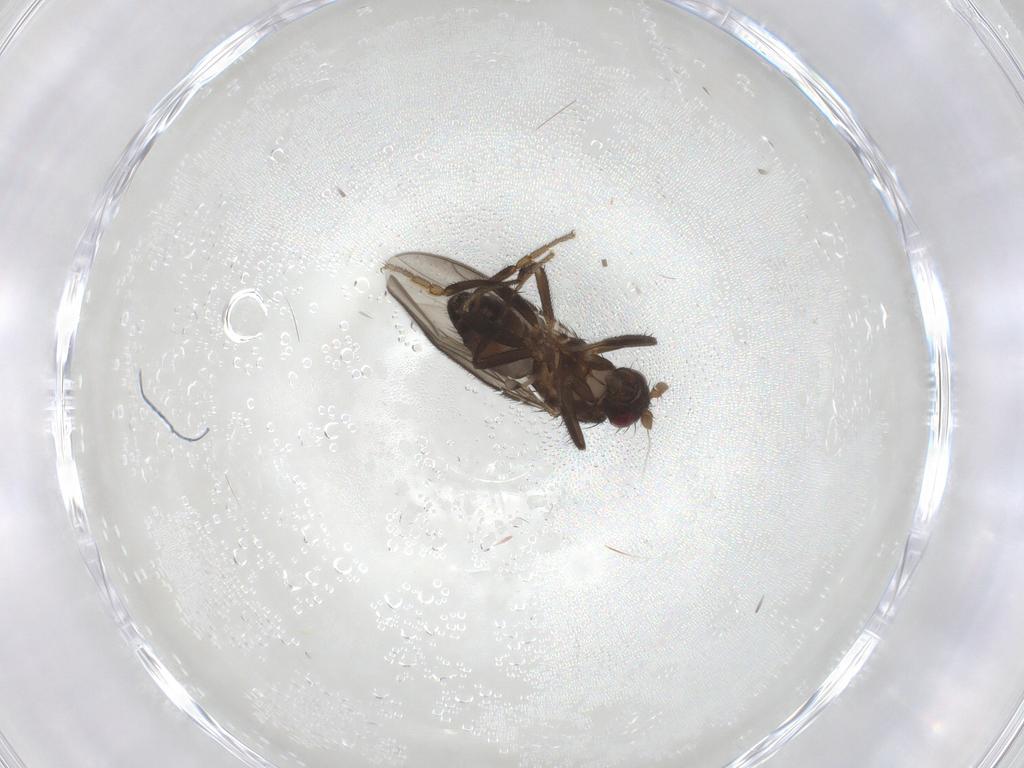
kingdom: Animalia
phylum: Arthropoda
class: Insecta
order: Diptera
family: Sphaeroceridae
